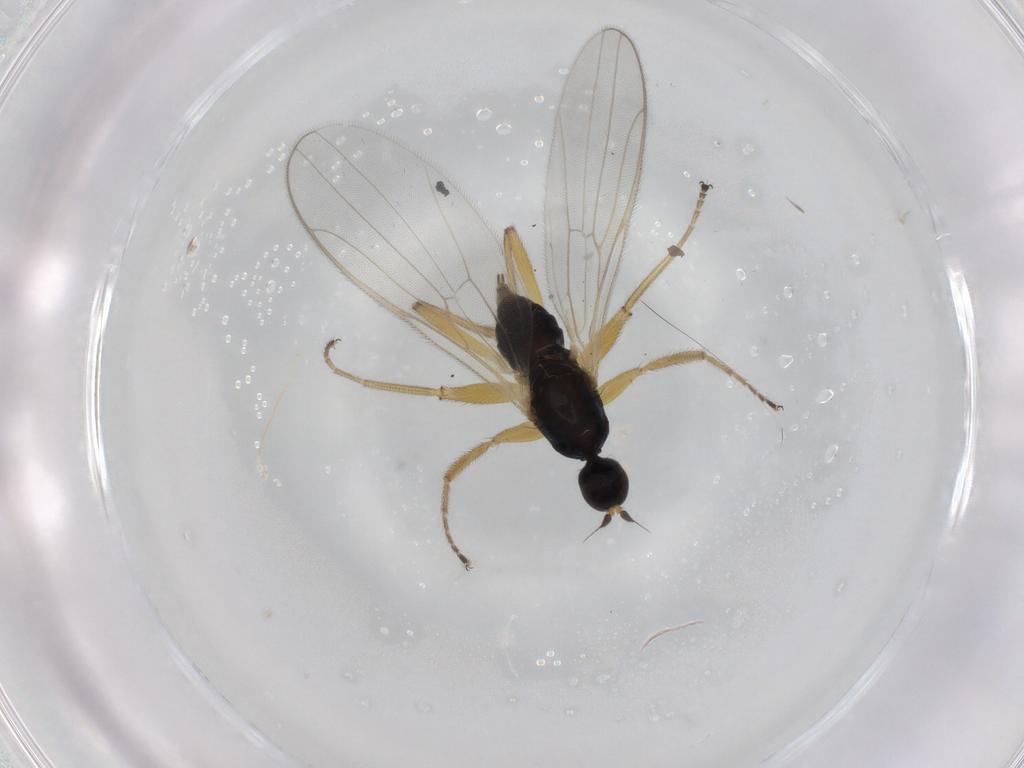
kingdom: Animalia
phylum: Arthropoda
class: Insecta
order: Diptera
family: Hybotidae
